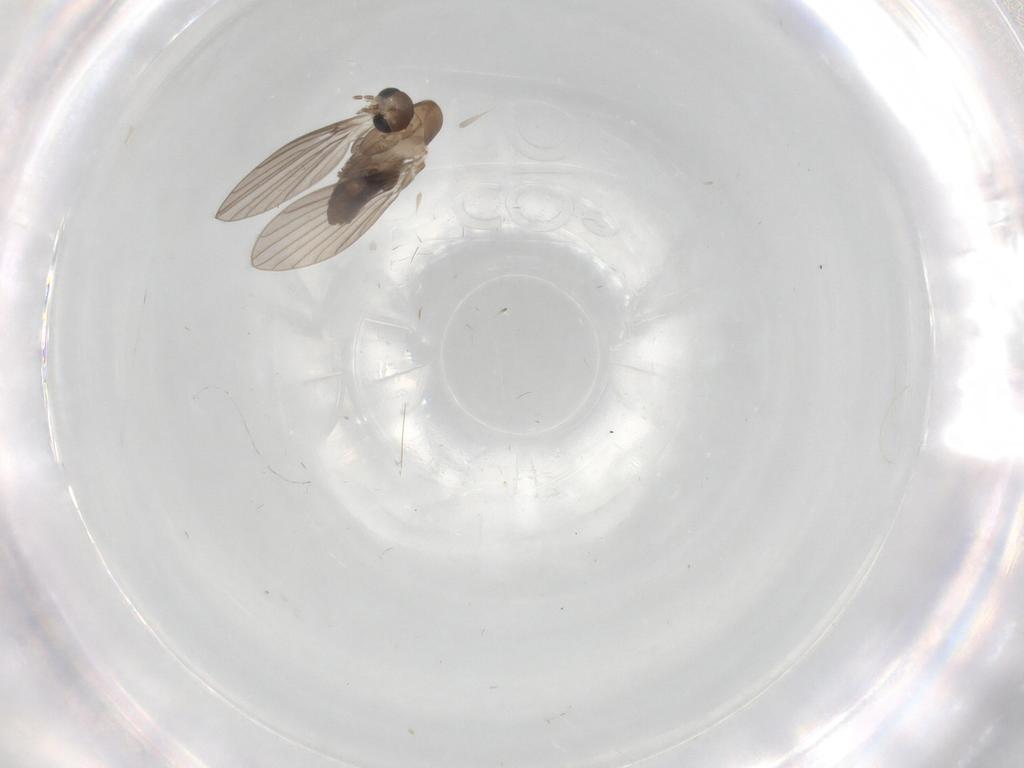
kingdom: Animalia
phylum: Arthropoda
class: Insecta
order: Diptera
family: Psychodidae
